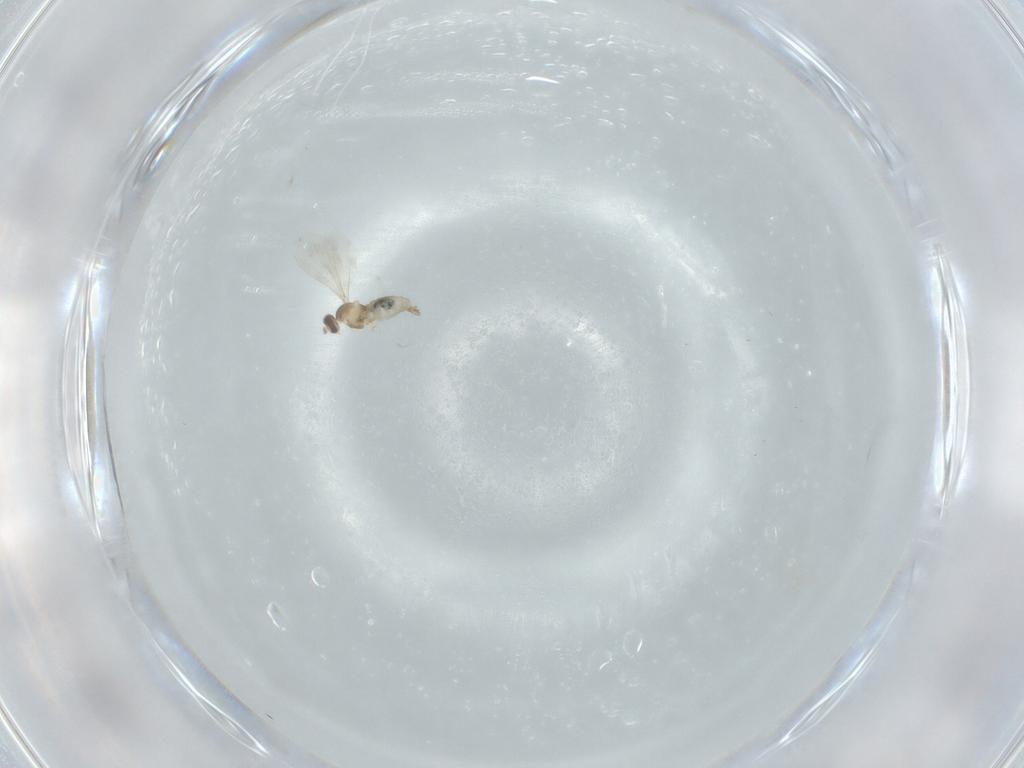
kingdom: Animalia
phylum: Arthropoda
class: Insecta
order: Diptera
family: Cecidomyiidae
